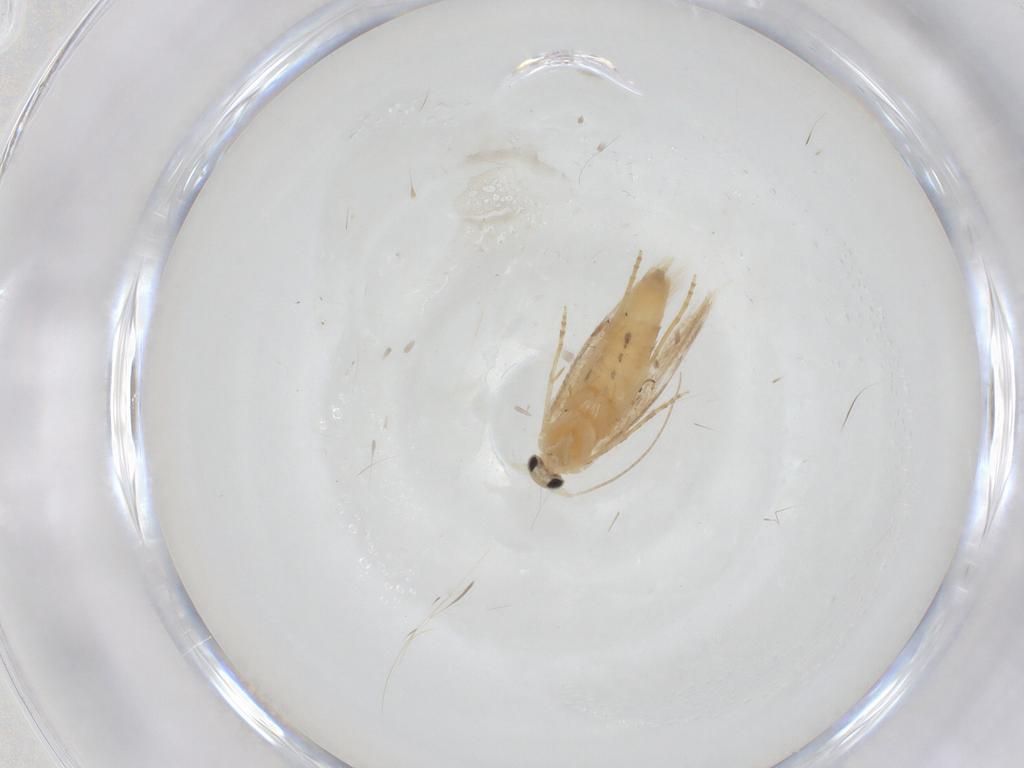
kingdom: Animalia
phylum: Arthropoda
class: Insecta
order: Lepidoptera
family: Depressariidae
